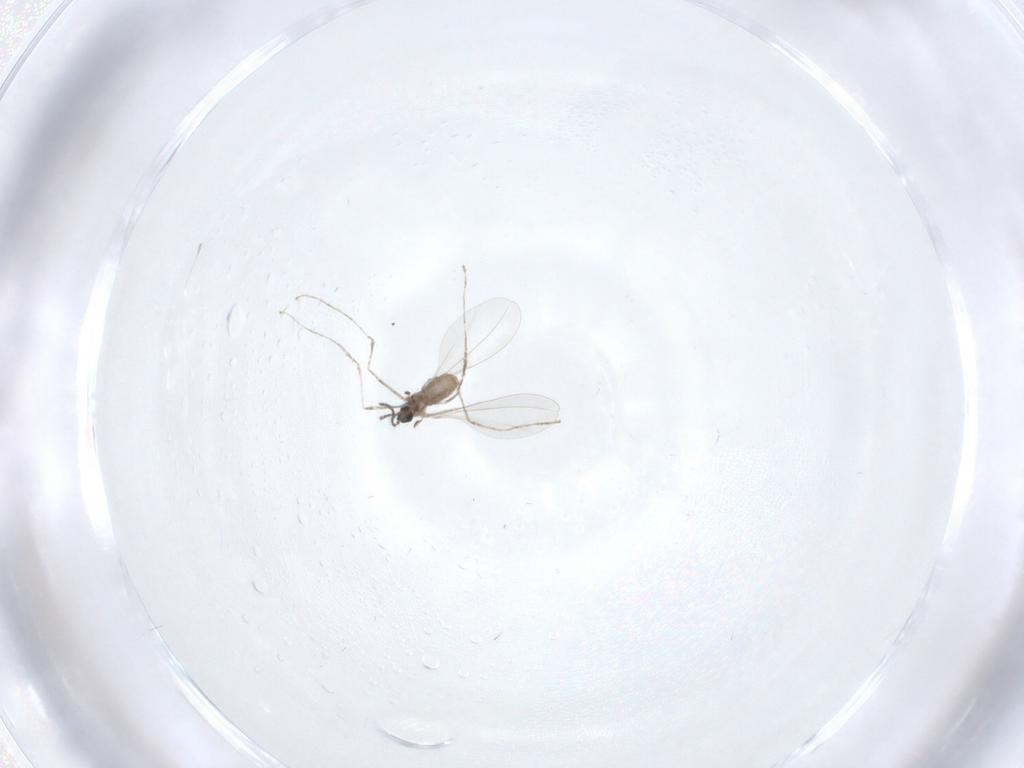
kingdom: Animalia
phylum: Arthropoda
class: Insecta
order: Diptera
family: Cecidomyiidae
